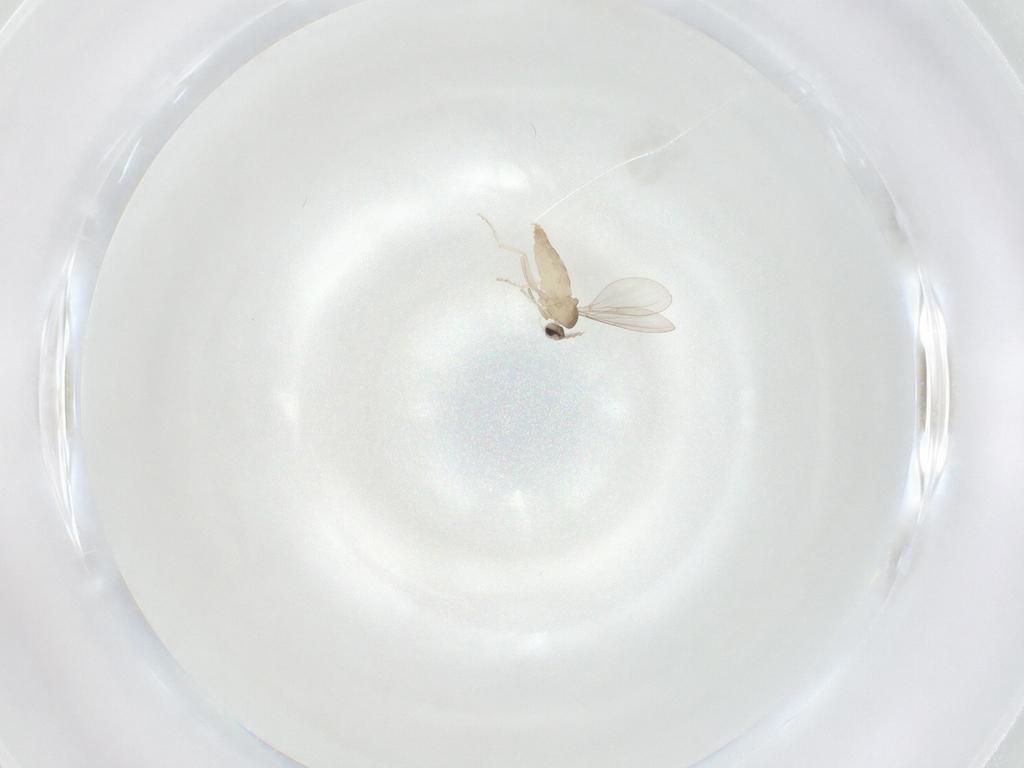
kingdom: Animalia
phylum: Arthropoda
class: Insecta
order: Diptera
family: Cecidomyiidae
